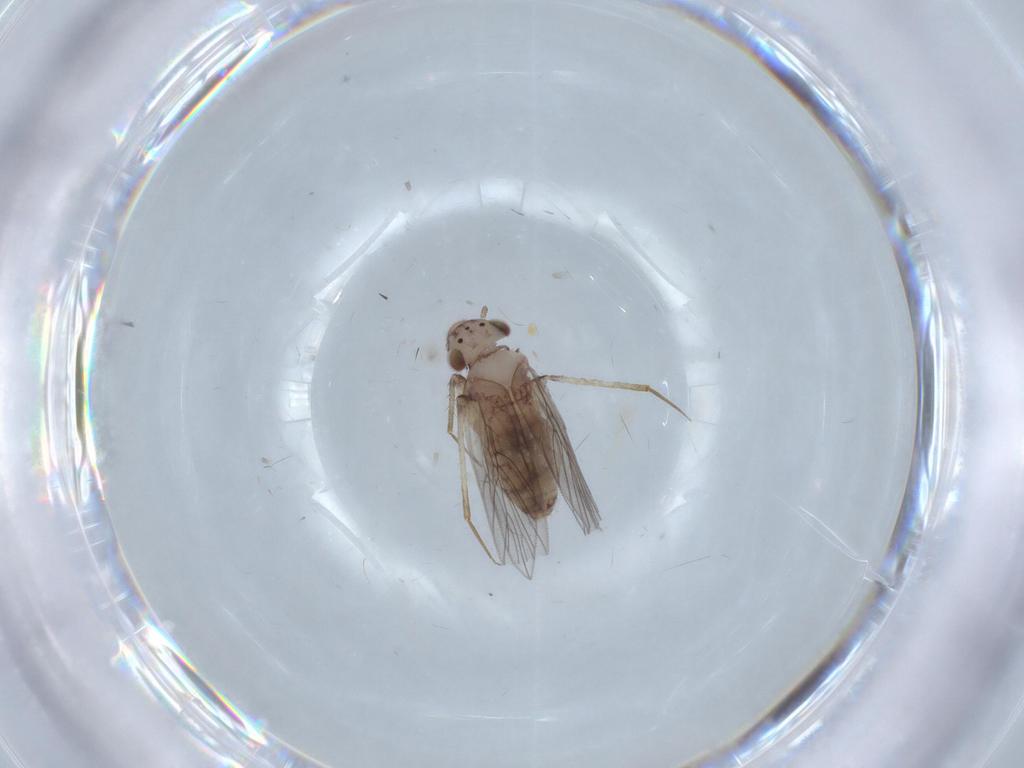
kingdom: Animalia
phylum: Arthropoda
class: Insecta
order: Psocodea
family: Lepidopsocidae
